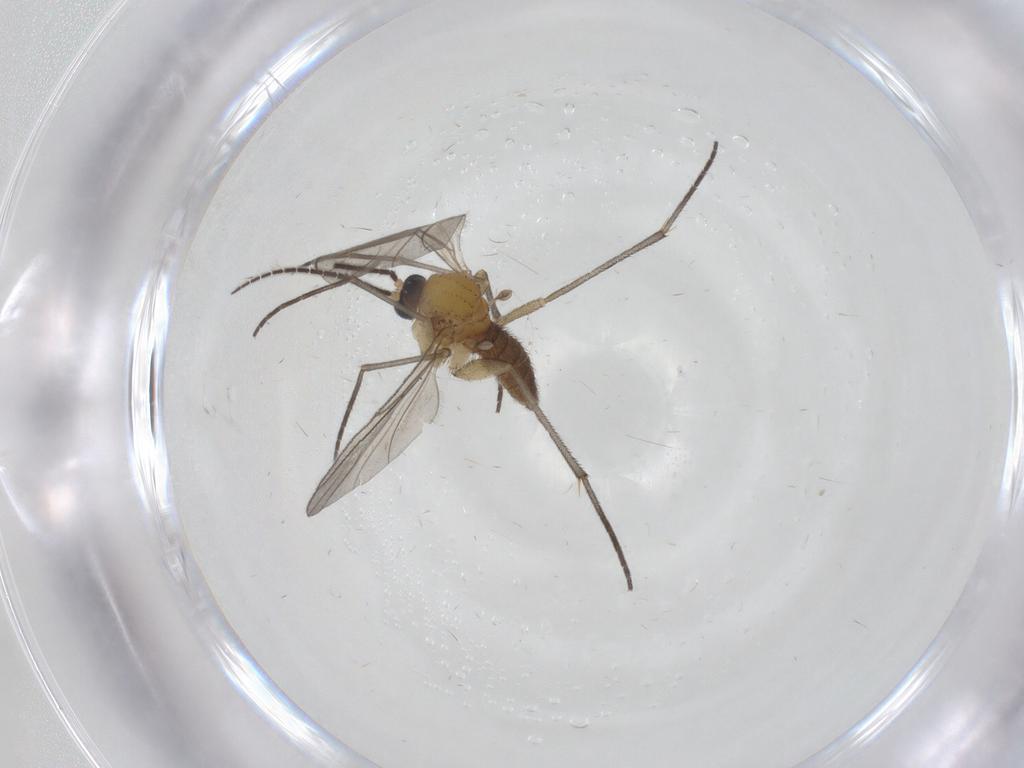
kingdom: Animalia
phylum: Arthropoda
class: Insecta
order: Diptera
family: Sciaridae
